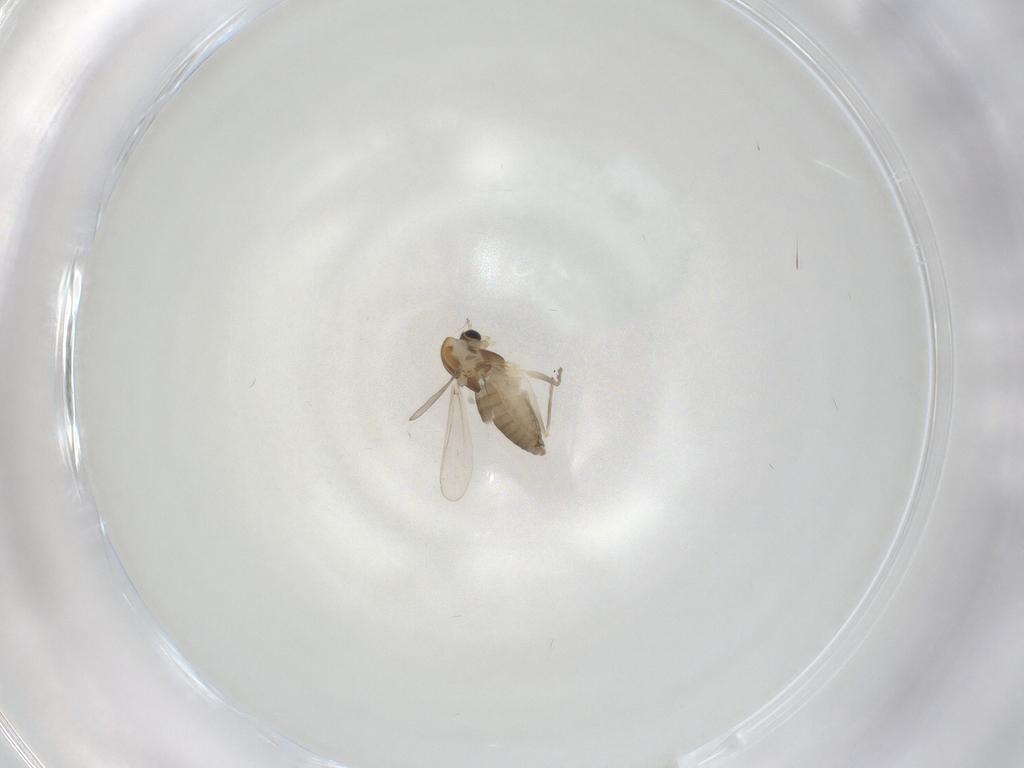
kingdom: Animalia
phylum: Arthropoda
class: Insecta
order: Diptera
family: Chironomidae
